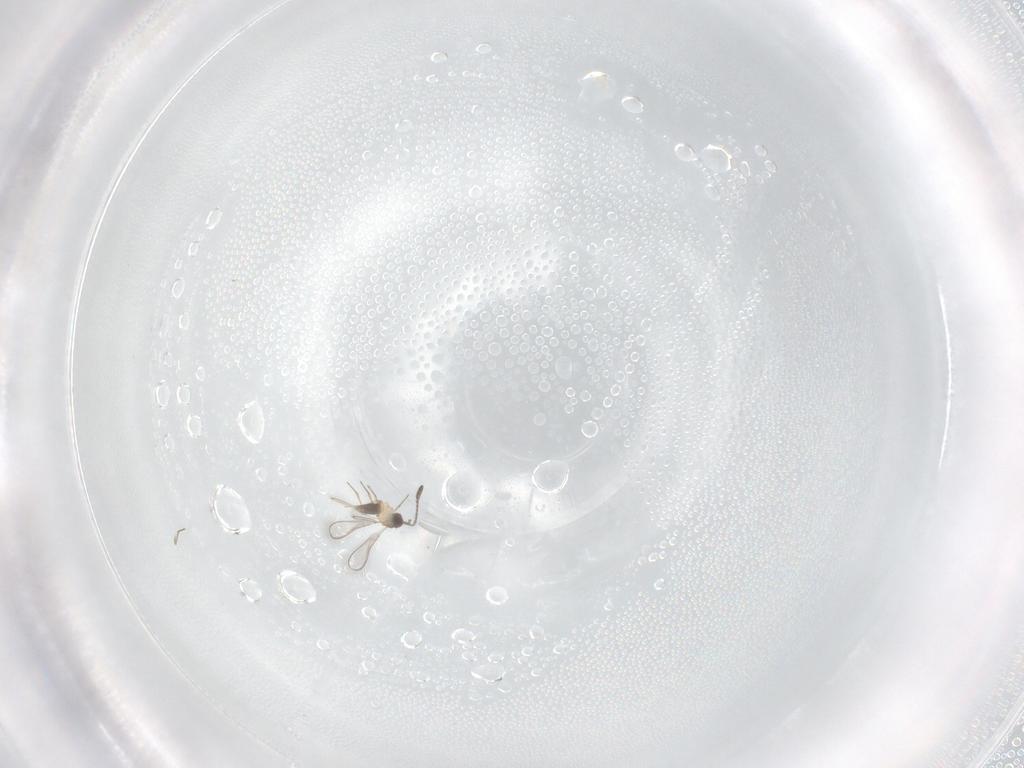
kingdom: Animalia
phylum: Arthropoda
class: Insecta
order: Hymenoptera
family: Eulophidae
